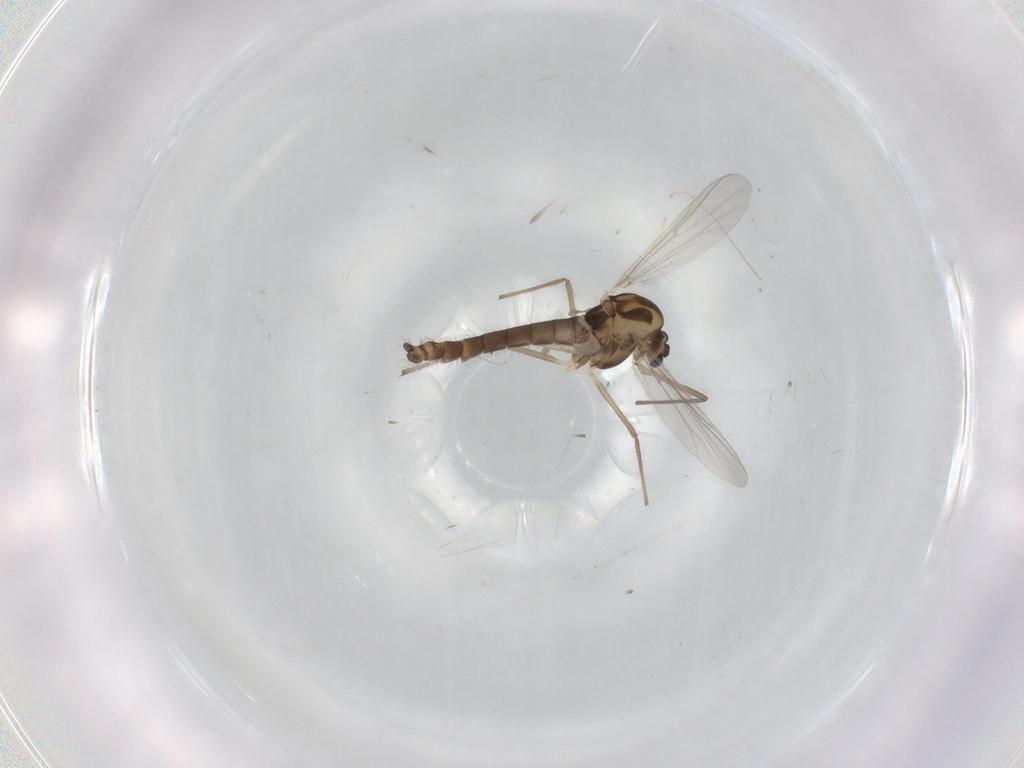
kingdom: Animalia
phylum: Arthropoda
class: Insecta
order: Diptera
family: Chironomidae
